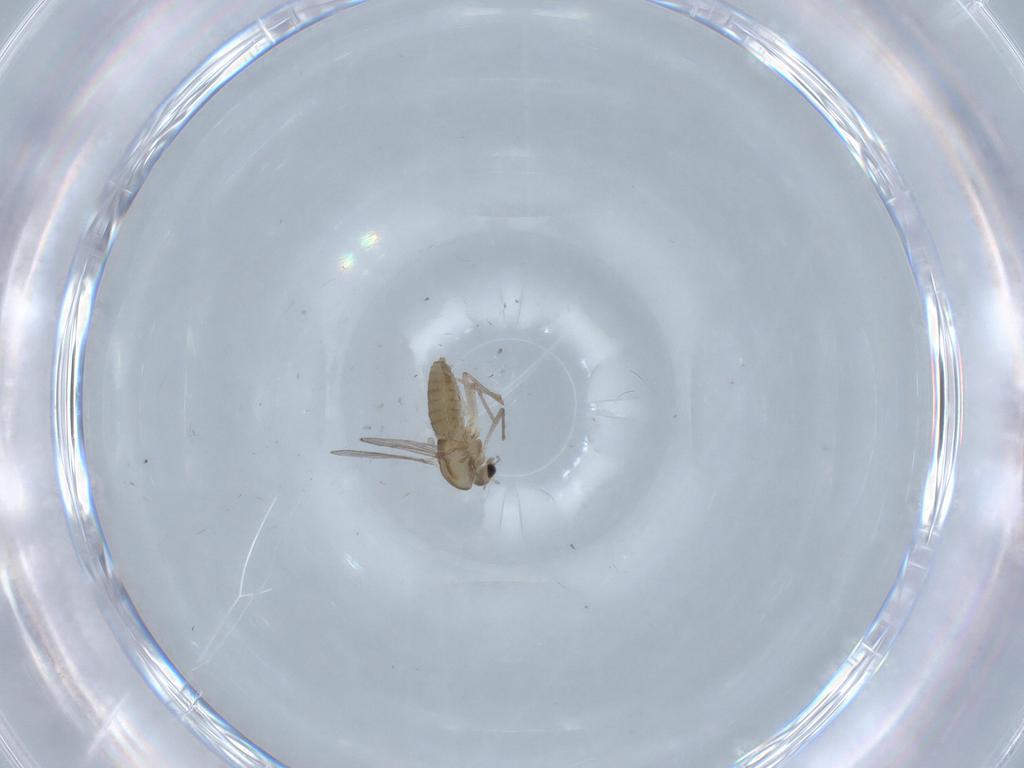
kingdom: Animalia
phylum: Arthropoda
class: Insecta
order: Diptera
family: Chironomidae
